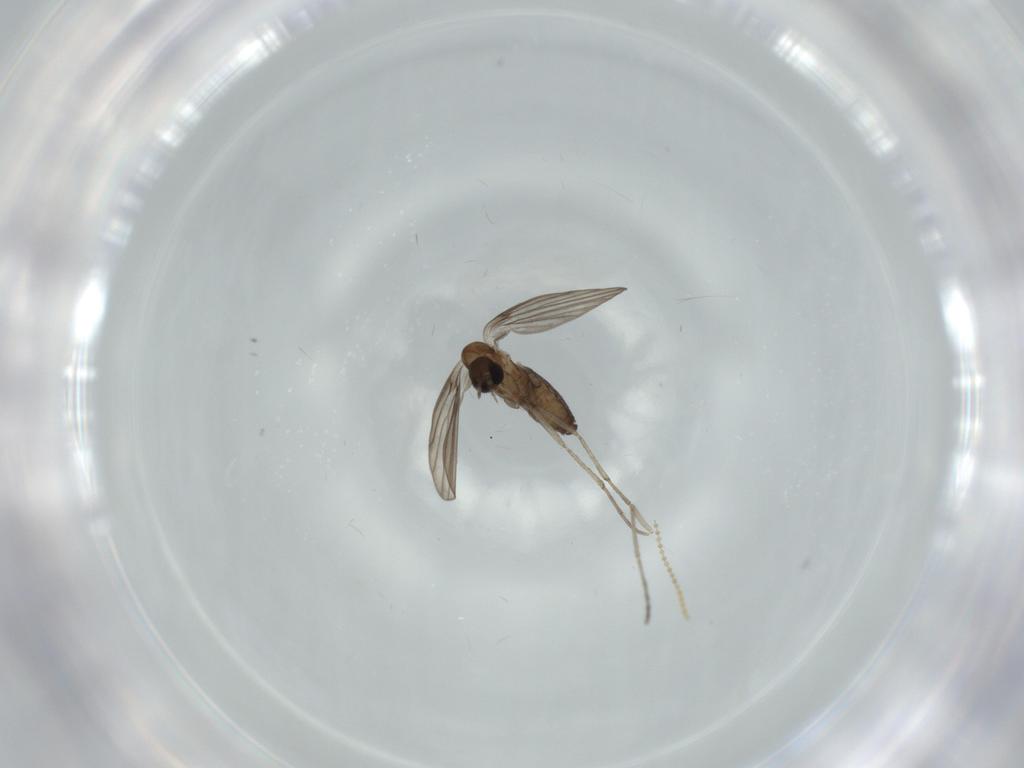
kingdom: Animalia
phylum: Arthropoda
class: Insecta
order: Diptera
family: Cecidomyiidae
